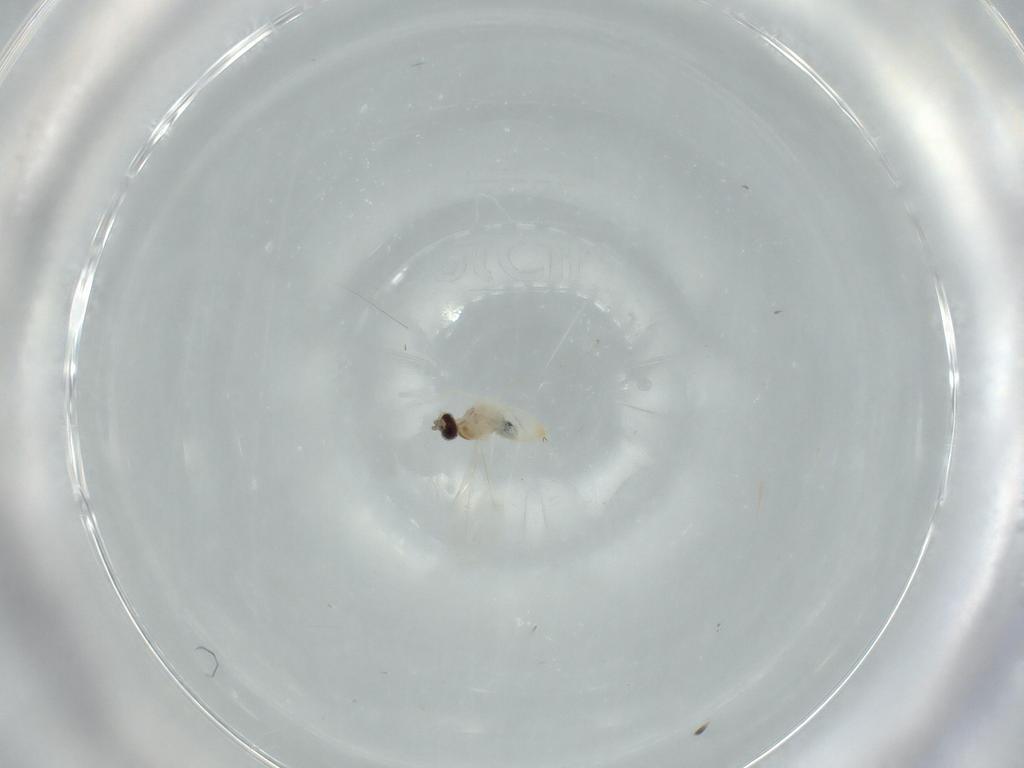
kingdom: Animalia
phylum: Arthropoda
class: Insecta
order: Diptera
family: Cecidomyiidae
